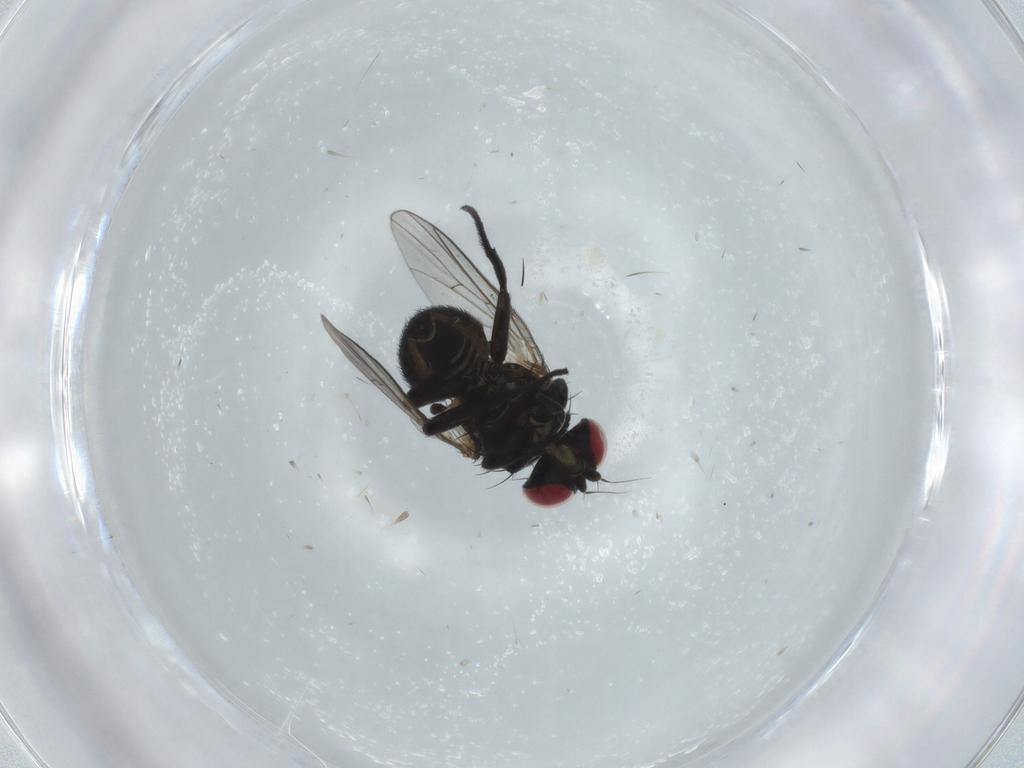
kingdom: Animalia
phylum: Arthropoda
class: Insecta
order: Diptera
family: Agromyzidae
